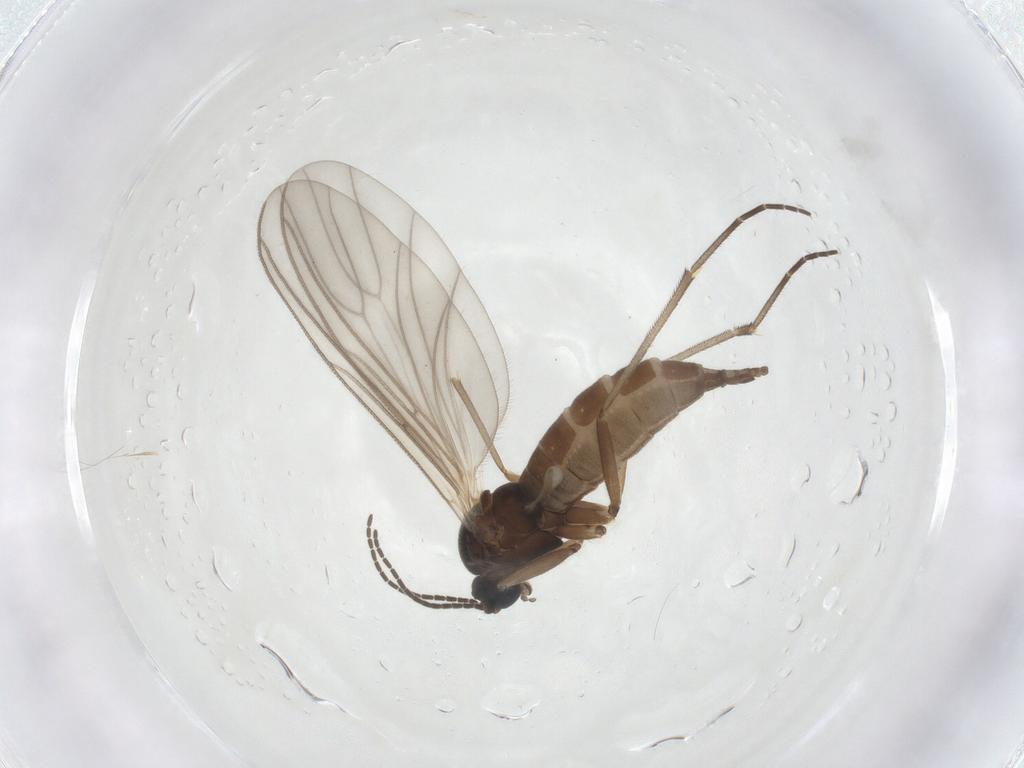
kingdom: Animalia
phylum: Arthropoda
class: Insecta
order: Diptera
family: Sciaridae
